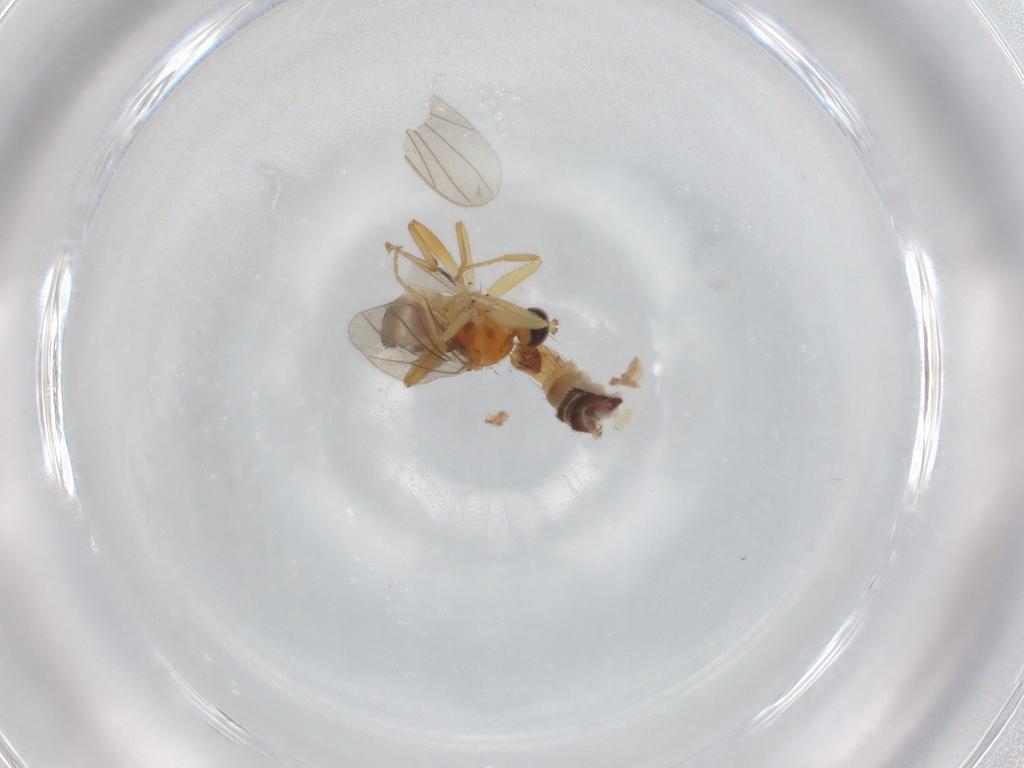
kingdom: Animalia
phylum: Arthropoda
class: Insecta
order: Diptera
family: Hybotidae
